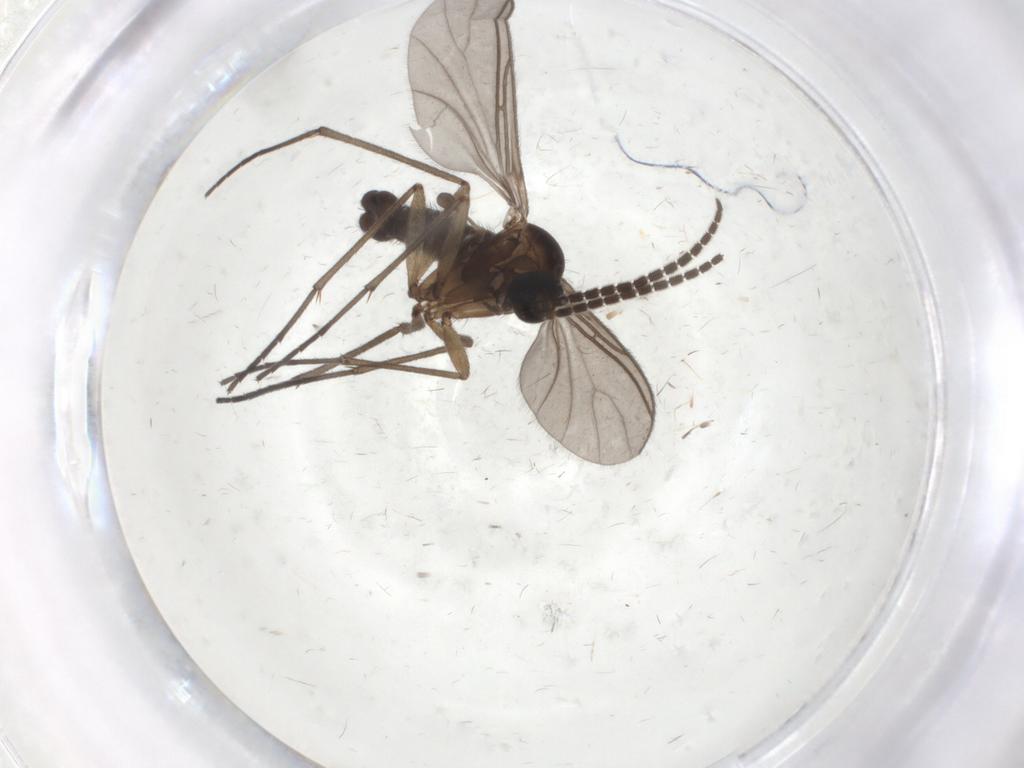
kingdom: Animalia
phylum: Arthropoda
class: Insecta
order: Diptera
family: Sciaridae
